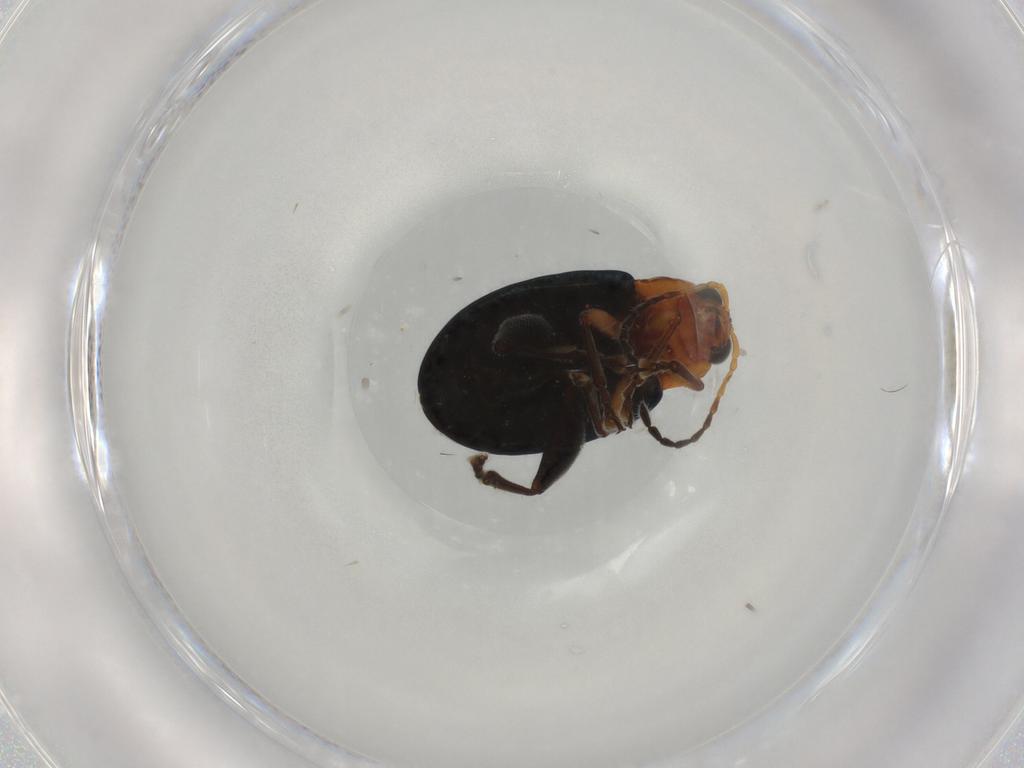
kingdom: Animalia
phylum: Arthropoda
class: Insecta
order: Coleoptera
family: Chrysomelidae
